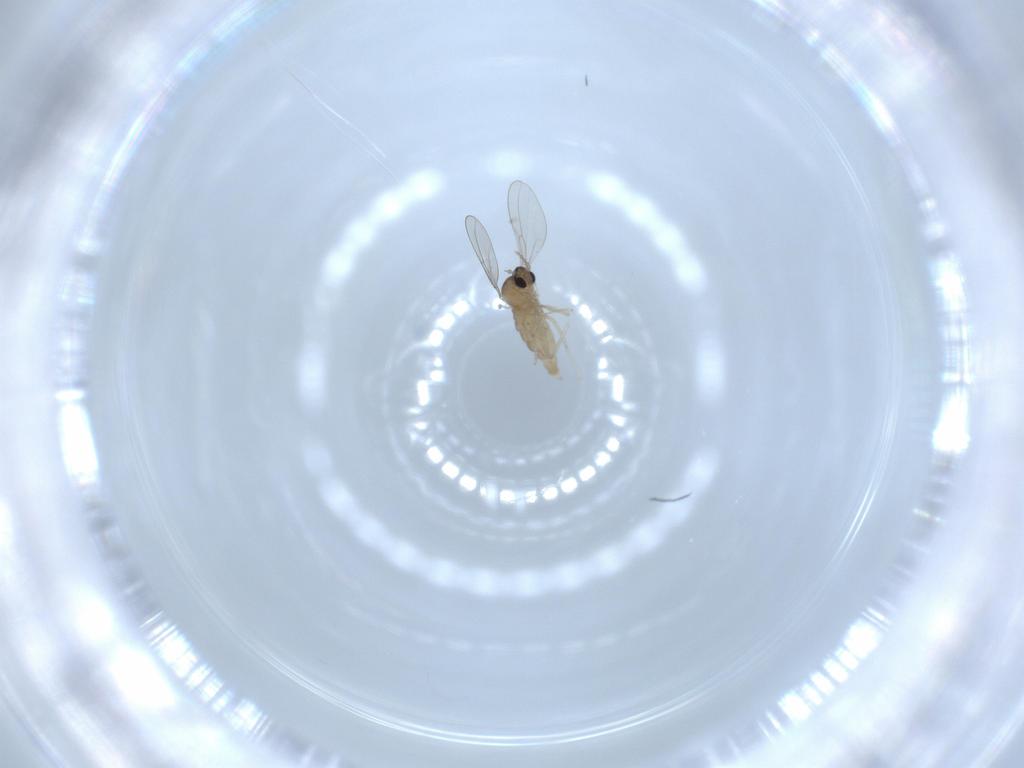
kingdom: Animalia
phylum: Arthropoda
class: Insecta
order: Diptera
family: Cecidomyiidae
